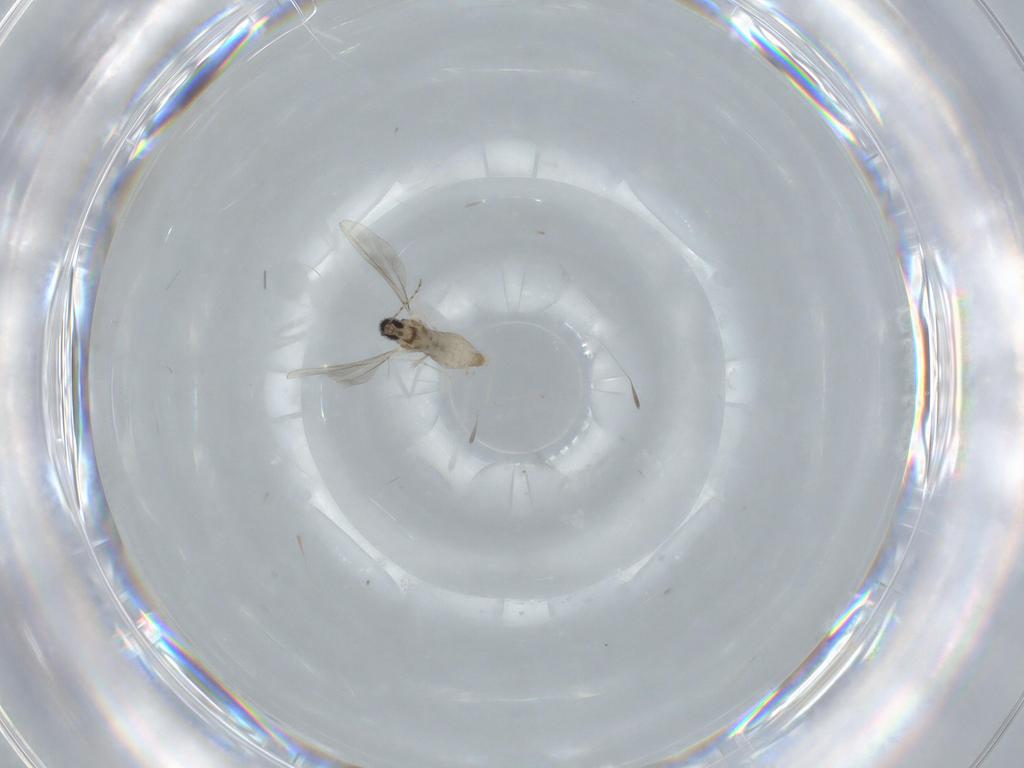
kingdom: Animalia
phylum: Arthropoda
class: Insecta
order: Diptera
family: Cecidomyiidae
